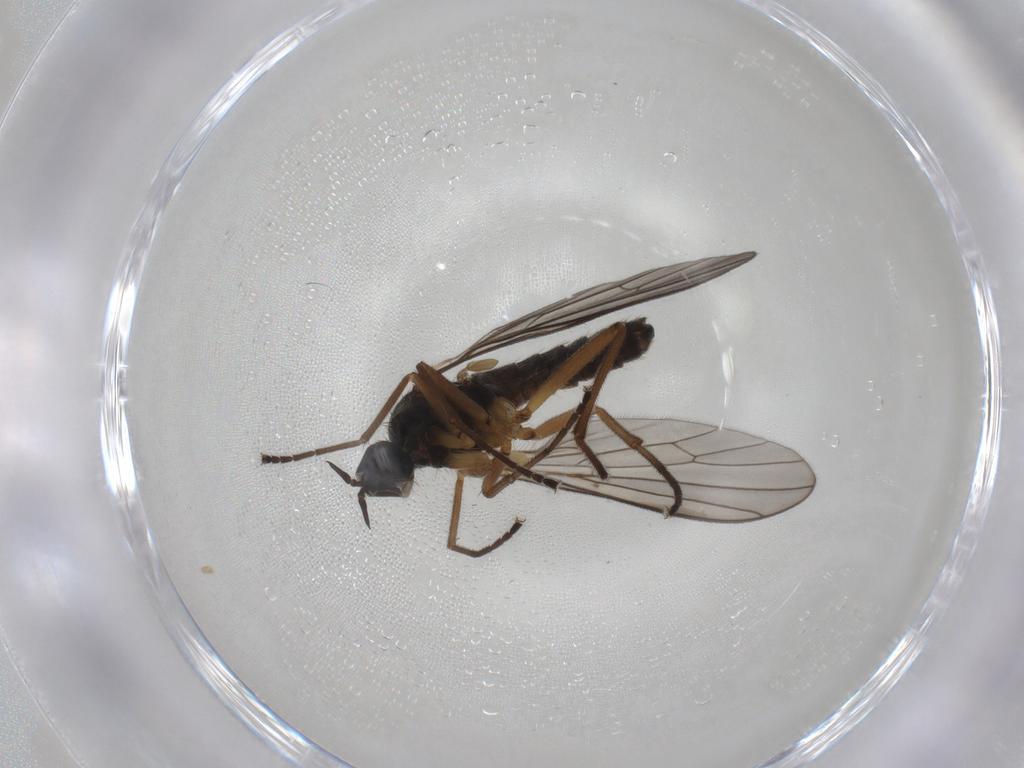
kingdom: Animalia
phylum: Arthropoda
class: Insecta
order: Diptera
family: Empididae
